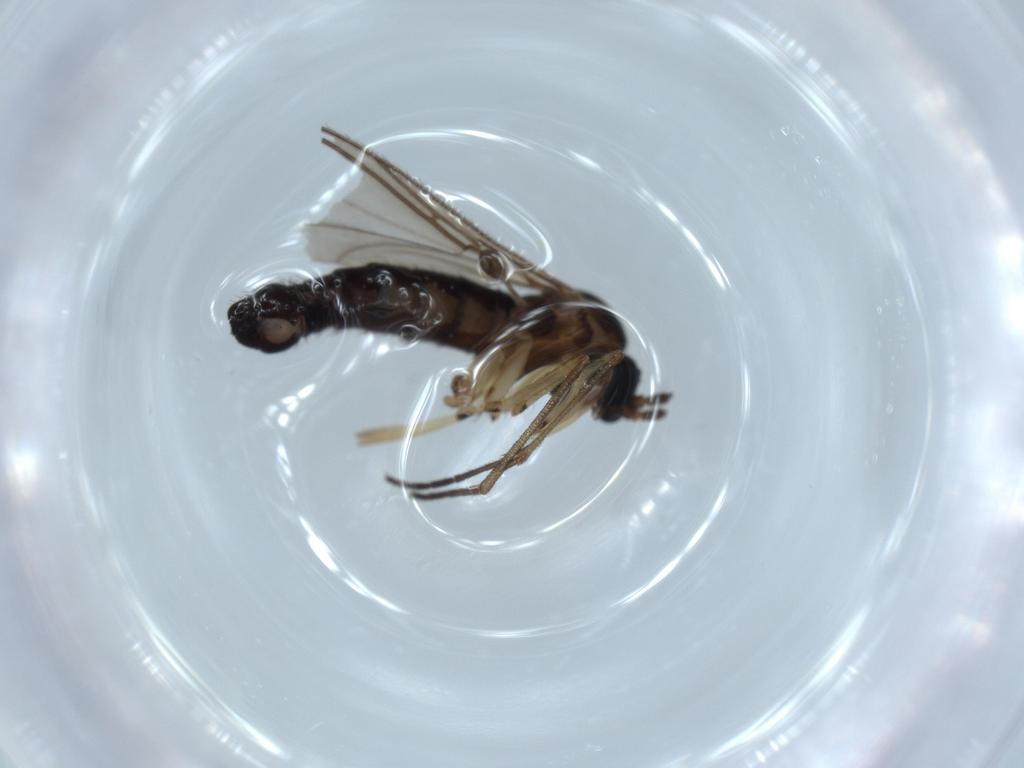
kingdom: Animalia
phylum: Arthropoda
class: Insecta
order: Diptera
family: Sciaridae
